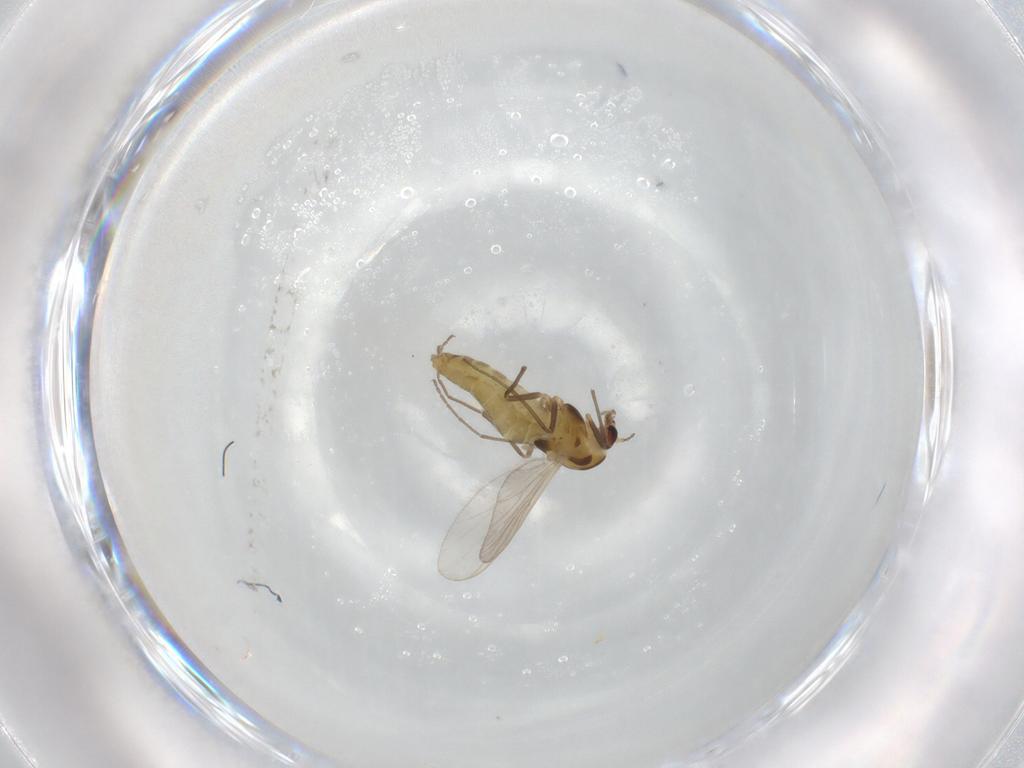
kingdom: Animalia
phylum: Arthropoda
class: Insecta
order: Diptera
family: Chironomidae
